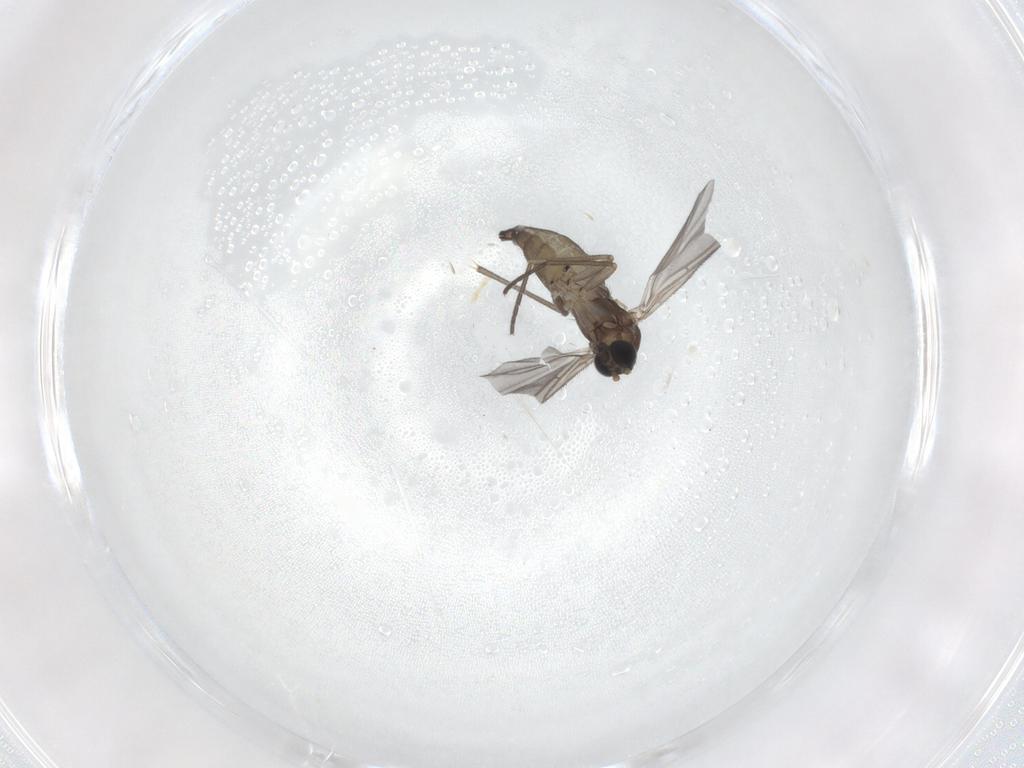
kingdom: Animalia
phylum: Arthropoda
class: Insecta
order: Diptera
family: Sciaridae
